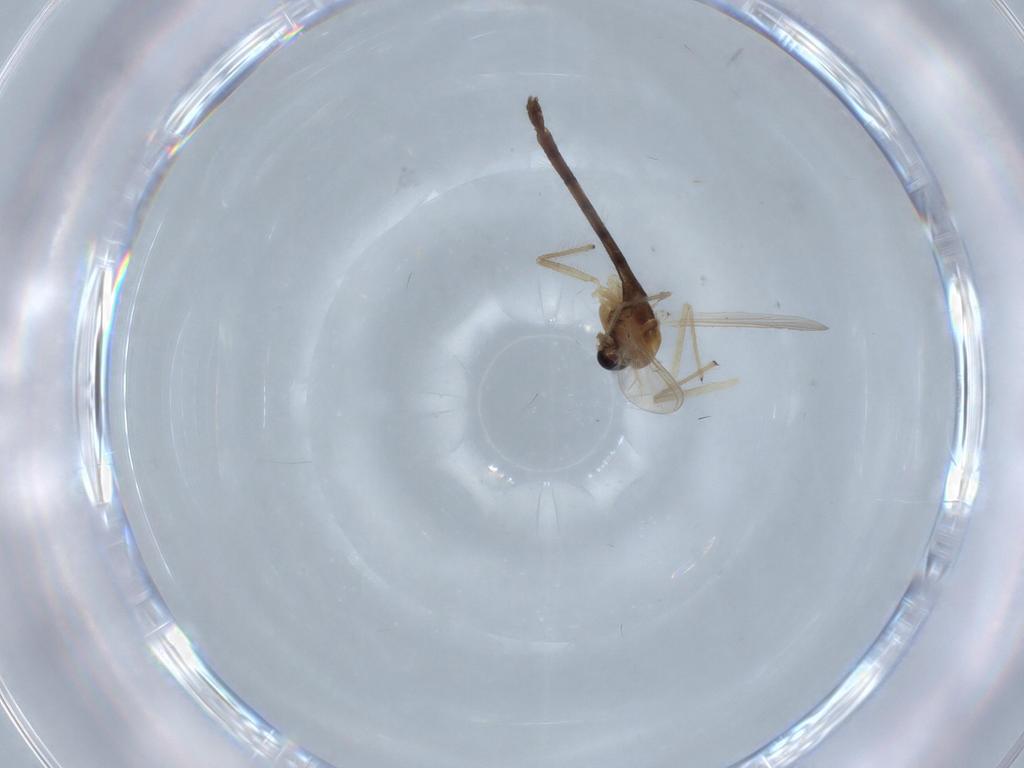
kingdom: Animalia
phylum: Arthropoda
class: Insecta
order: Diptera
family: Chironomidae
